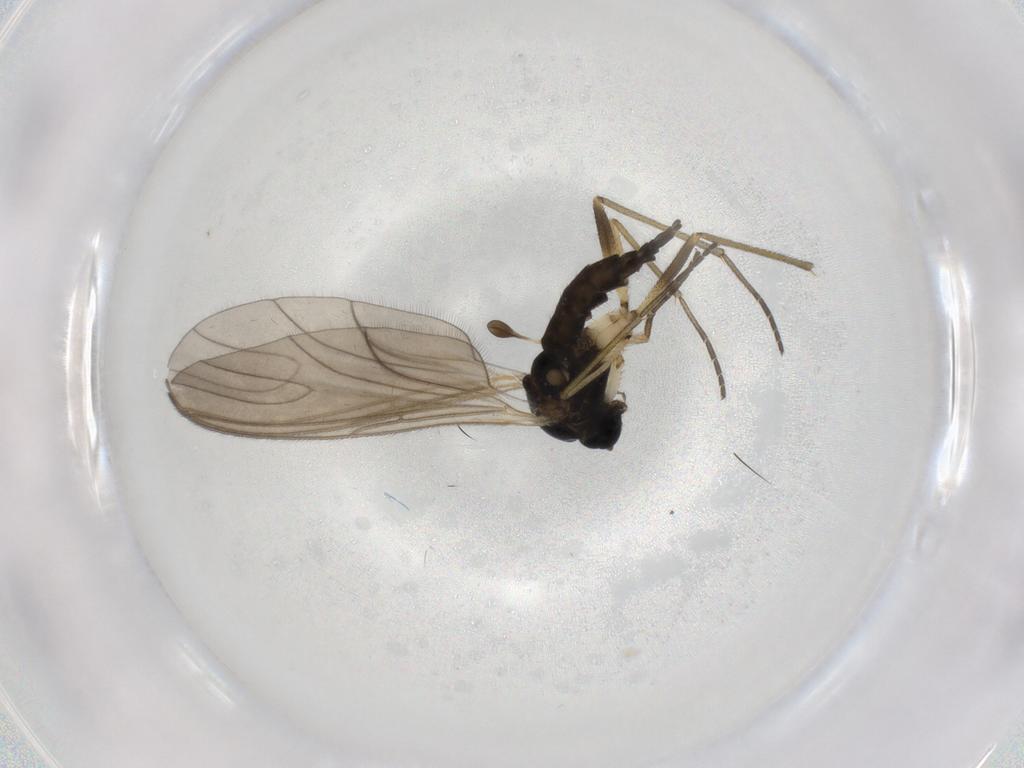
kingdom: Animalia
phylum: Arthropoda
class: Insecta
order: Diptera
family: Sciaridae
